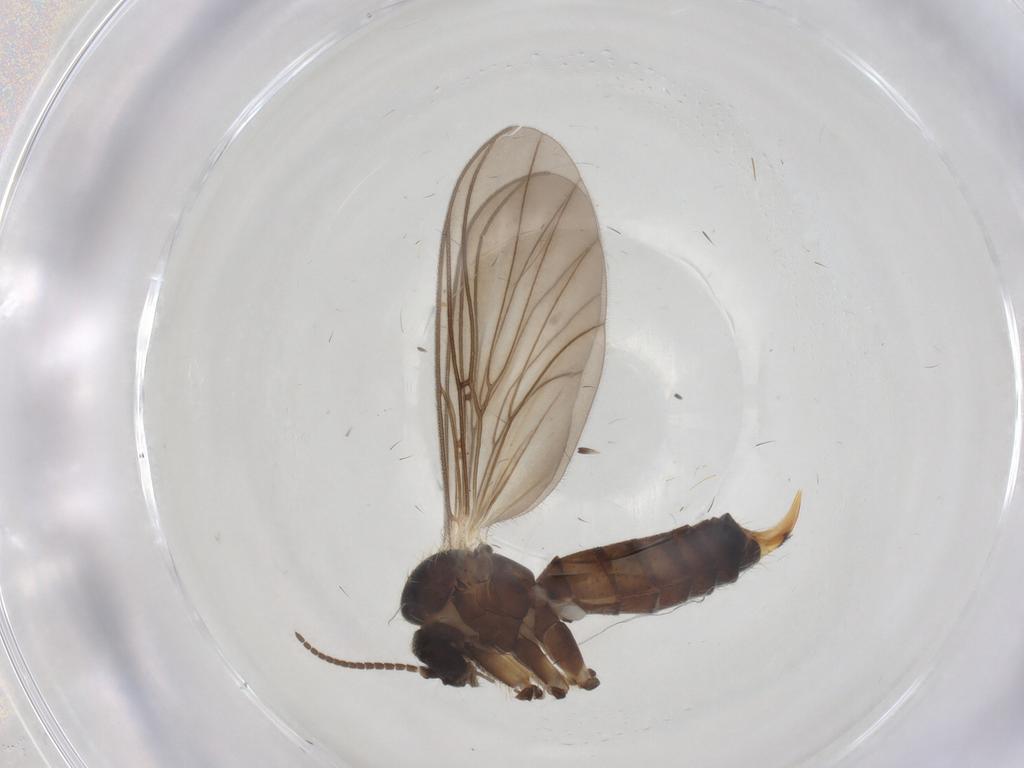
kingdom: Animalia
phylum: Arthropoda
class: Insecta
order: Diptera
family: Mycetophilidae
